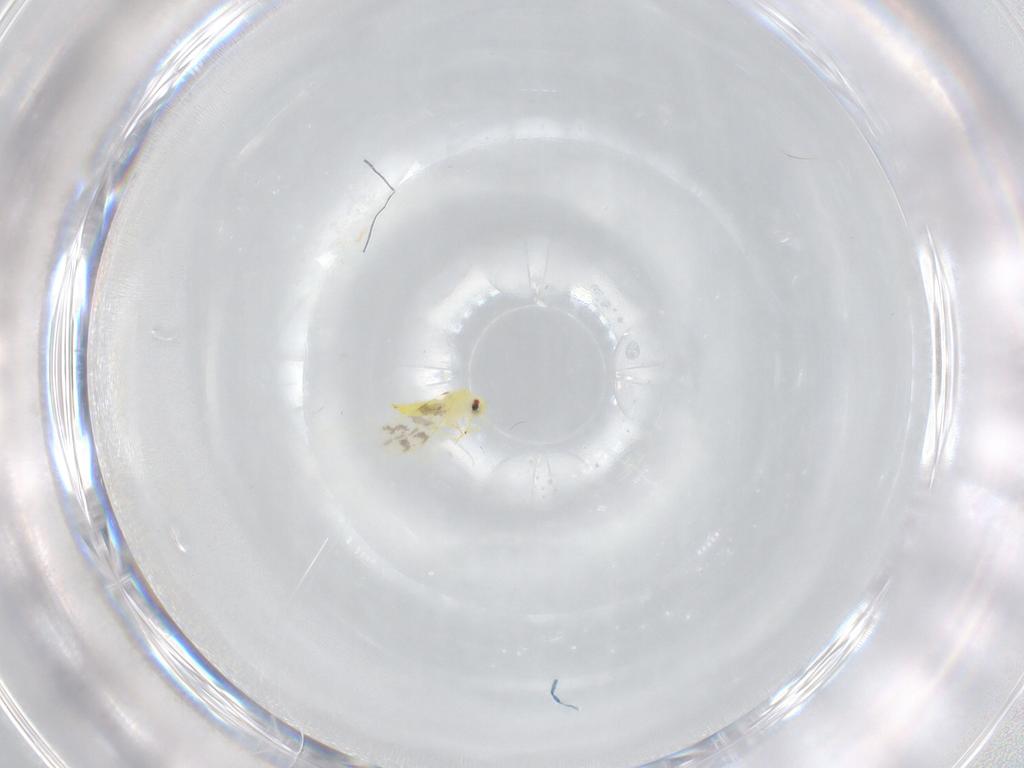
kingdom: Animalia
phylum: Arthropoda
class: Insecta
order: Hemiptera
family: Aleyrodidae
